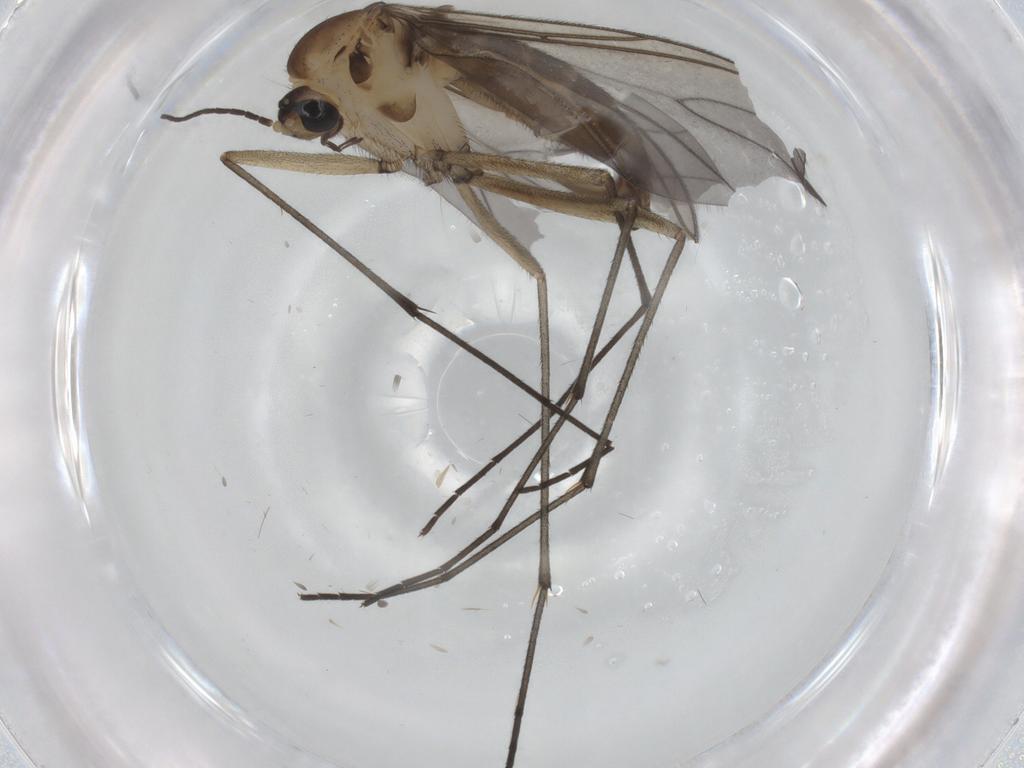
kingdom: Animalia
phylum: Arthropoda
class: Insecta
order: Diptera
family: Sciaridae
